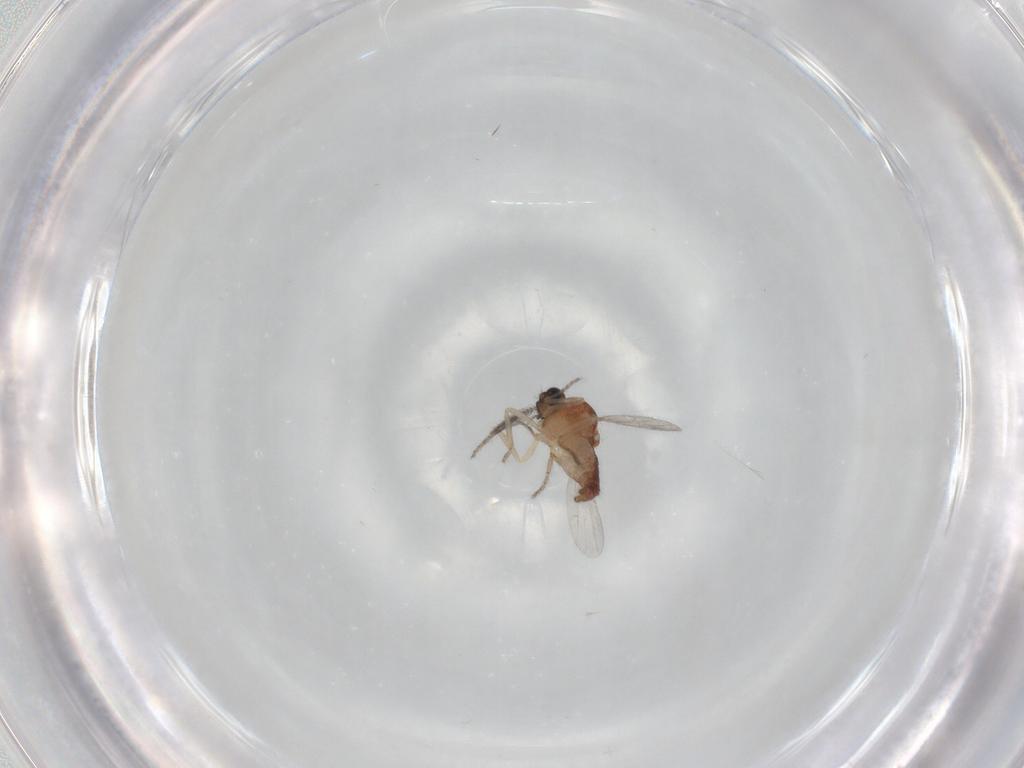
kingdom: Animalia
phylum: Arthropoda
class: Insecta
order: Diptera
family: Ceratopogonidae
